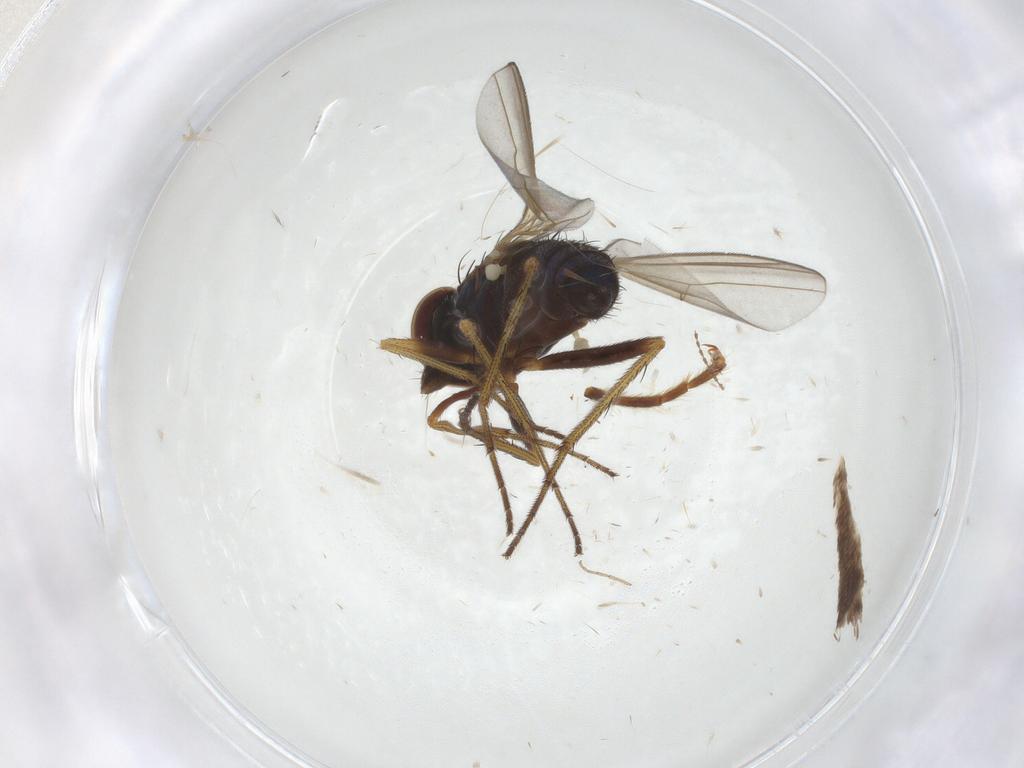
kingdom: Animalia
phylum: Arthropoda
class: Insecta
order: Diptera
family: Dolichopodidae
